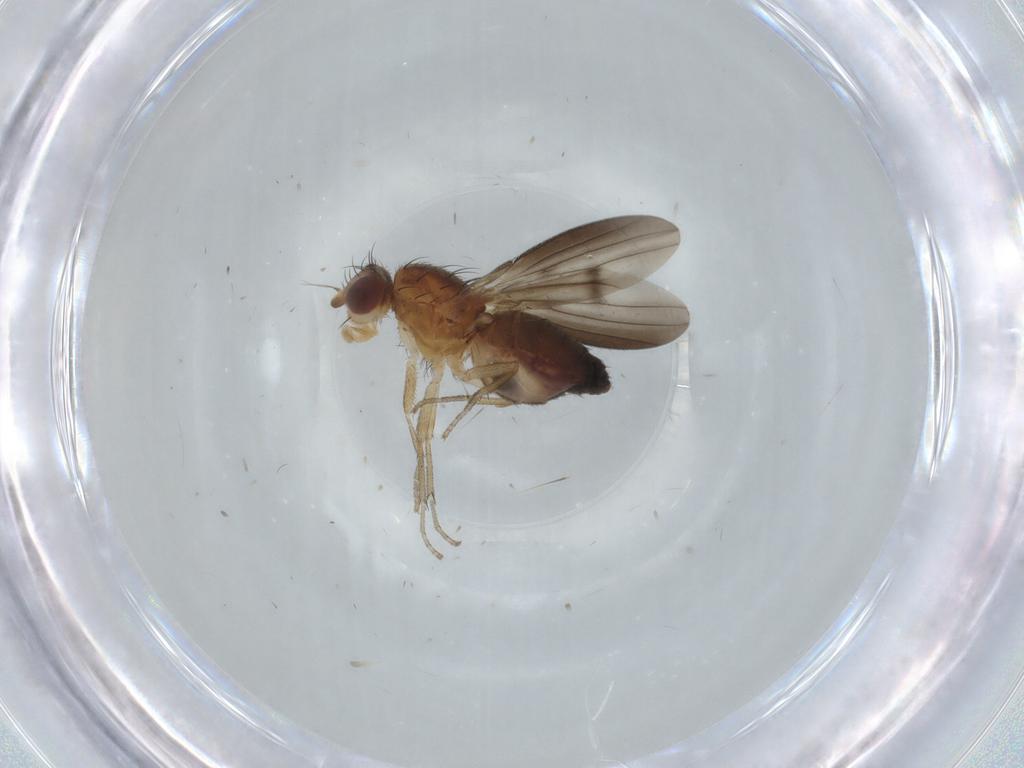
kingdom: Animalia
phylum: Arthropoda
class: Insecta
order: Diptera
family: Heleomyzidae
